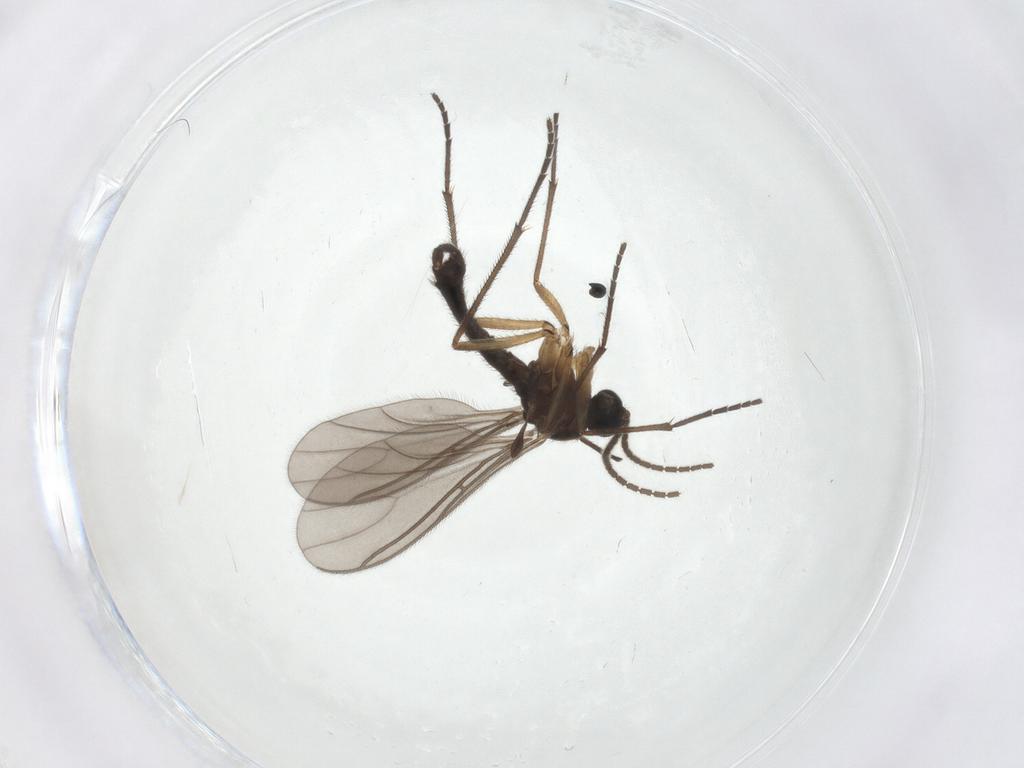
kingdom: Animalia
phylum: Arthropoda
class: Insecta
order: Diptera
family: Sciaridae
